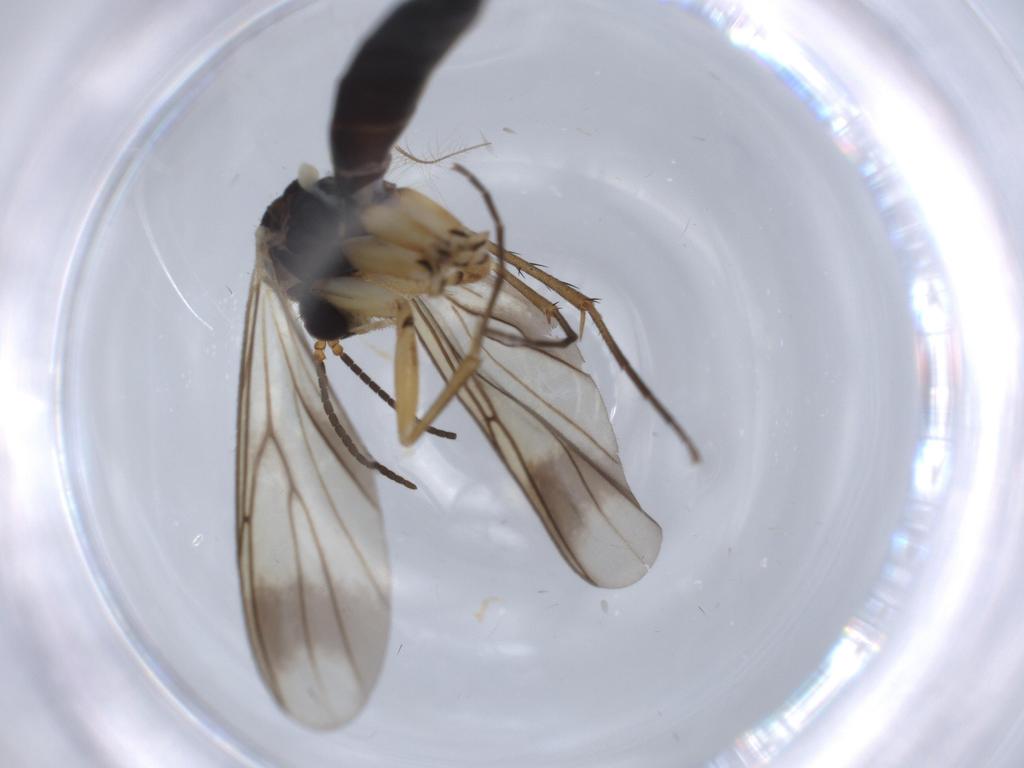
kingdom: Animalia
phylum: Arthropoda
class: Insecta
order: Diptera
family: Mycetophilidae
